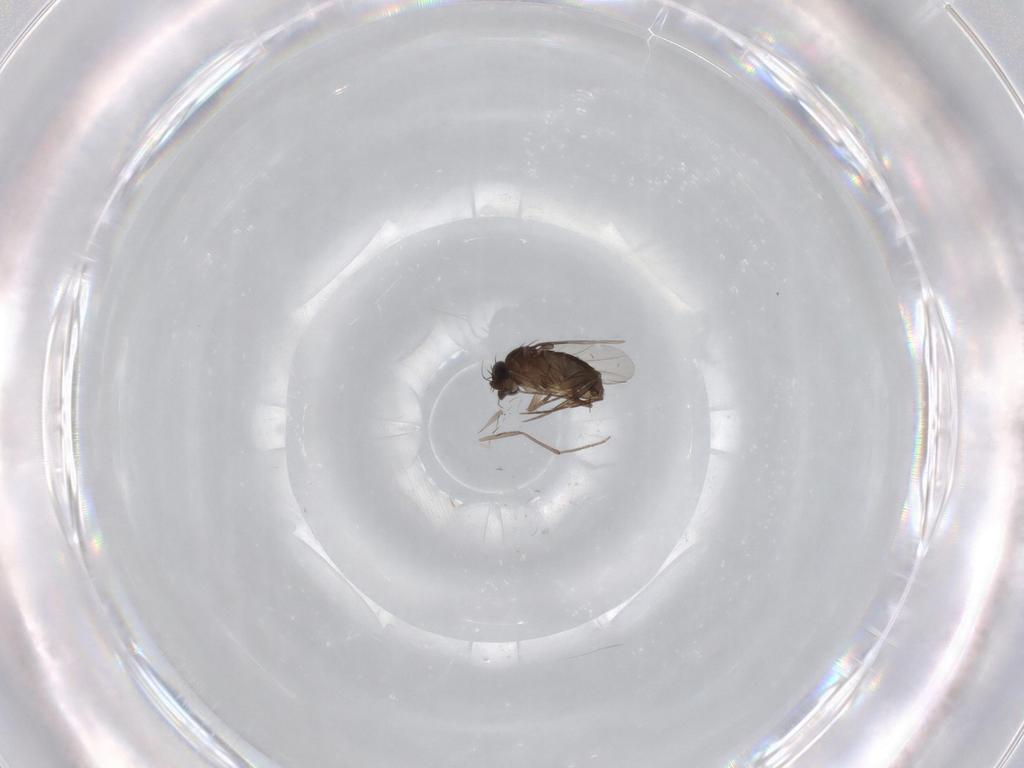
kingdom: Animalia
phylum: Arthropoda
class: Insecta
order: Diptera
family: Phoridae
